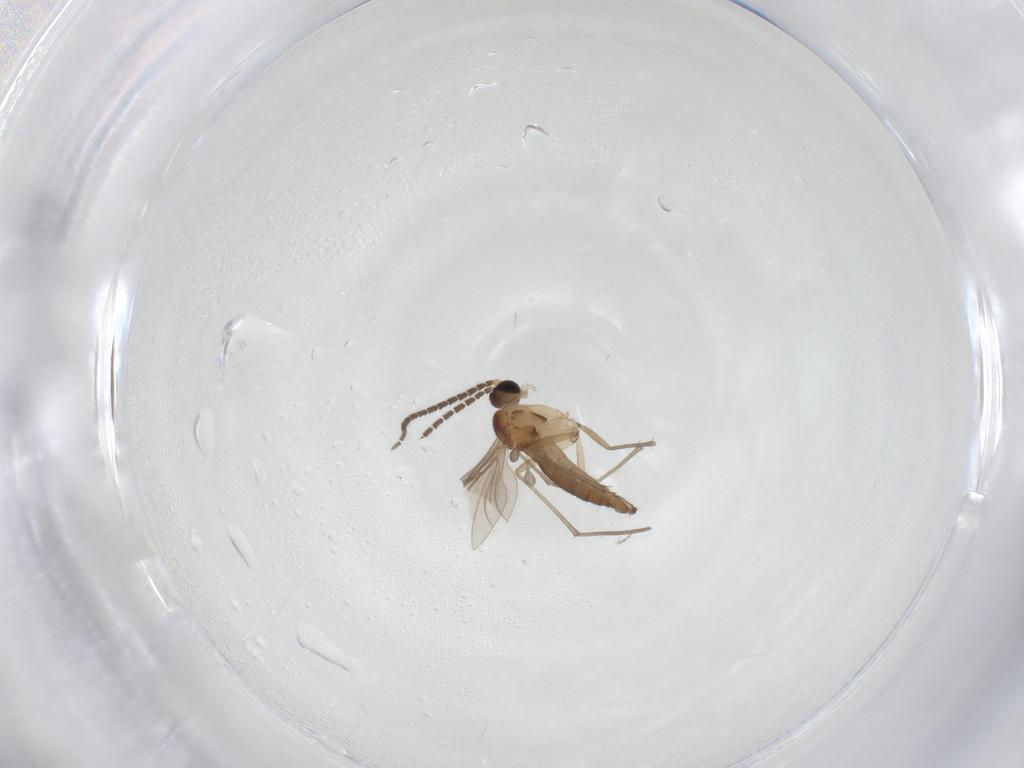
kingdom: Animalia
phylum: Arthropoda
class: Insecta
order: Diptera
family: Sciaridae
